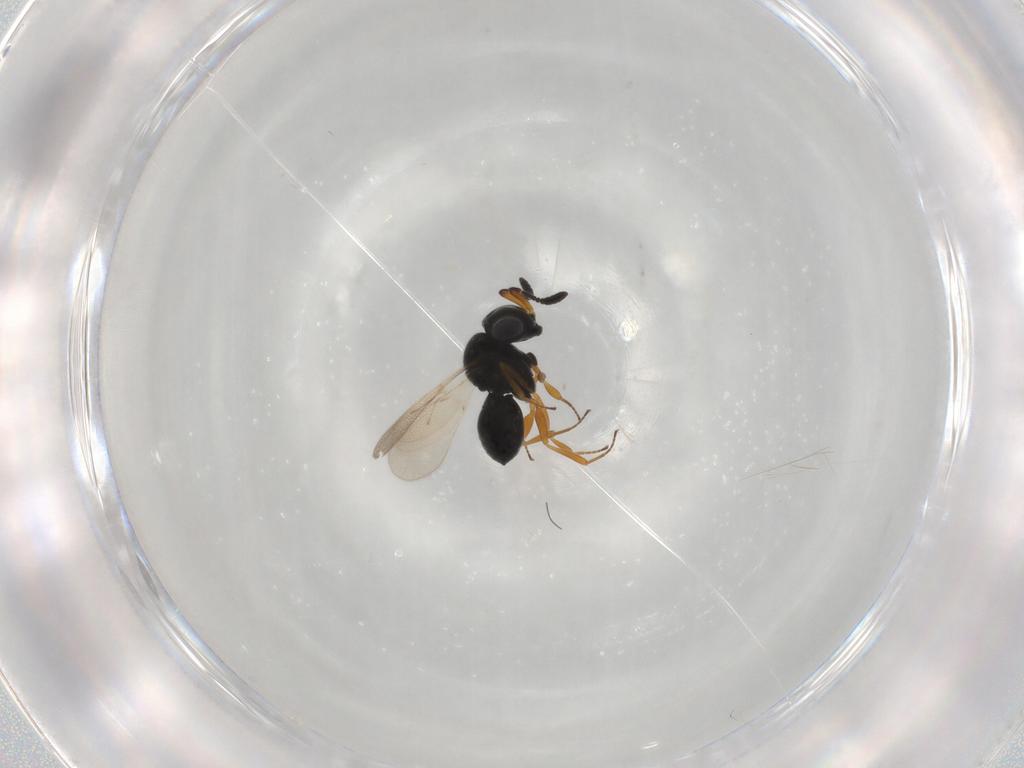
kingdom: Animalia
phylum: Arthropoda
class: Insecta
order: Hymenoptera
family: Scelionidae
